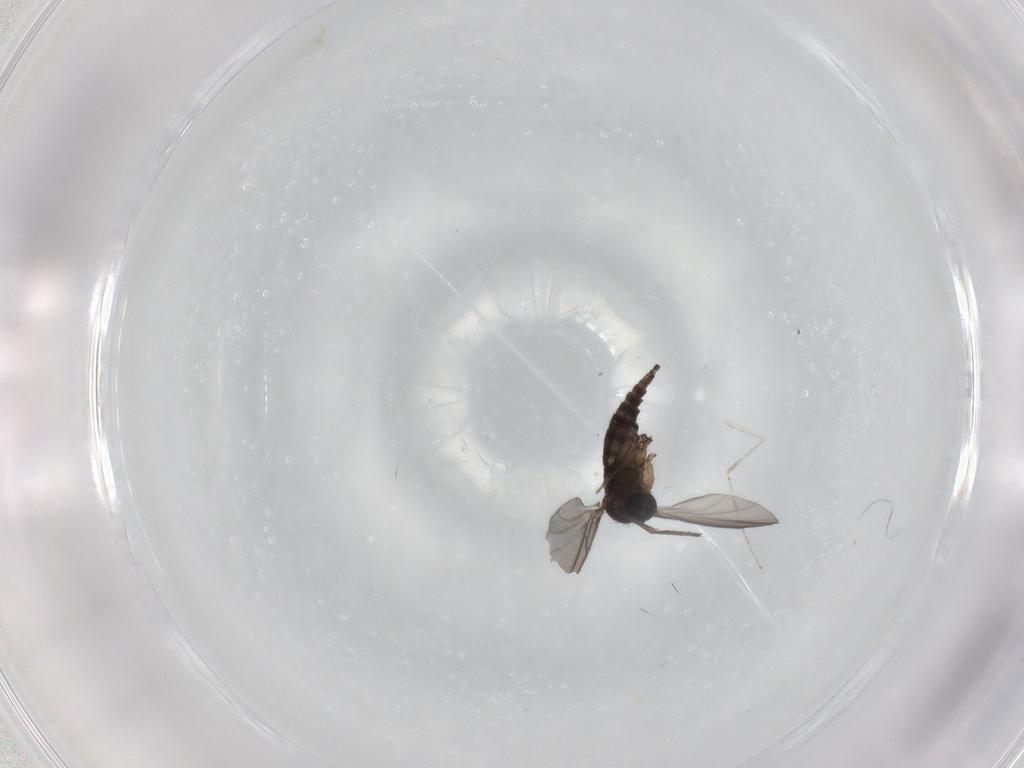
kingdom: Animalia
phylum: Arthropoda
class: Insecta
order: Diptera
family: Sciaridae
